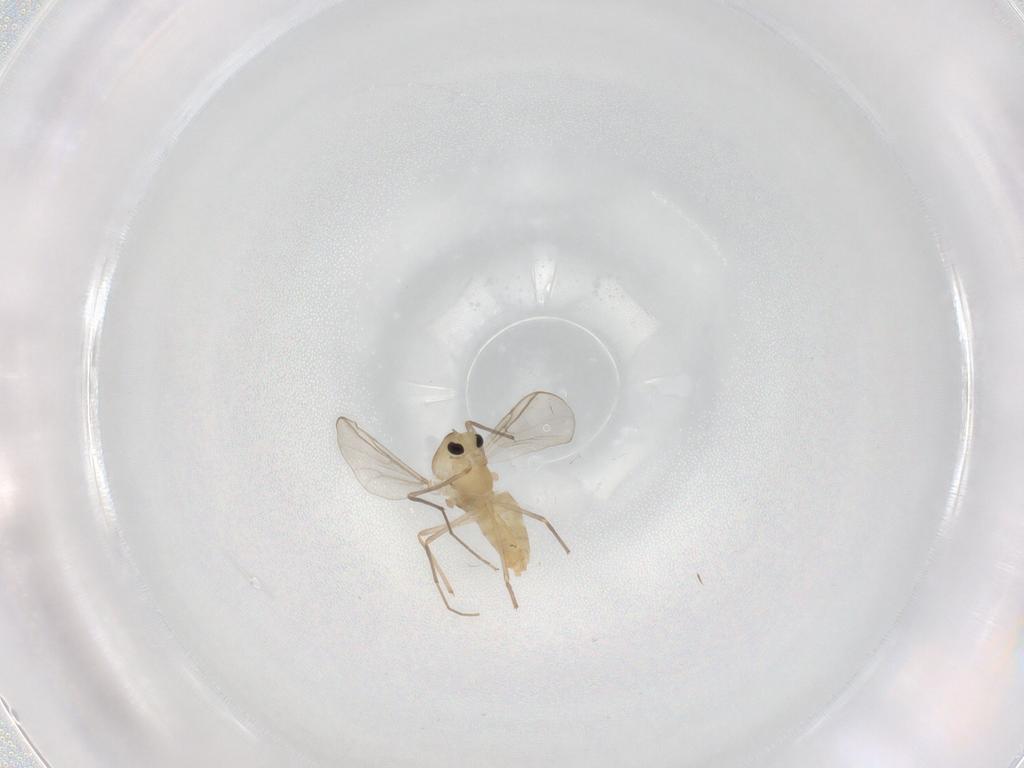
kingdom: Animalia
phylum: Arthropoda
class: Insecta
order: Diptera
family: Chironomidae
